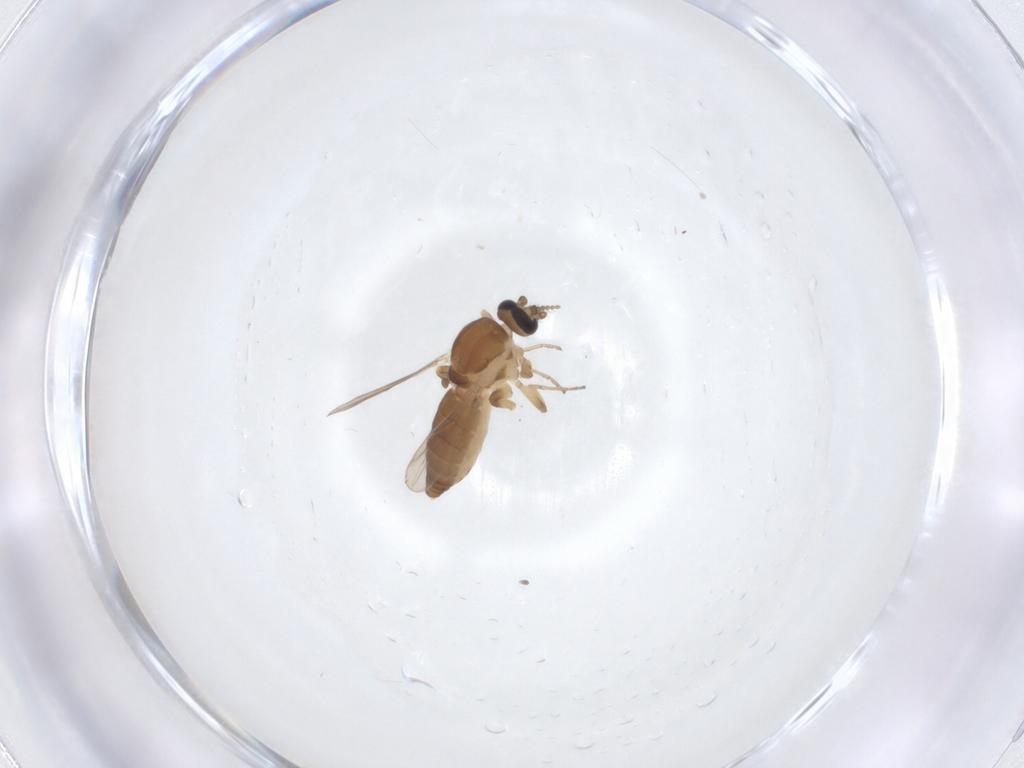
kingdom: Animalia
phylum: Arthropoda
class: Insecta
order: Diptera
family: Ceratopogonidae
